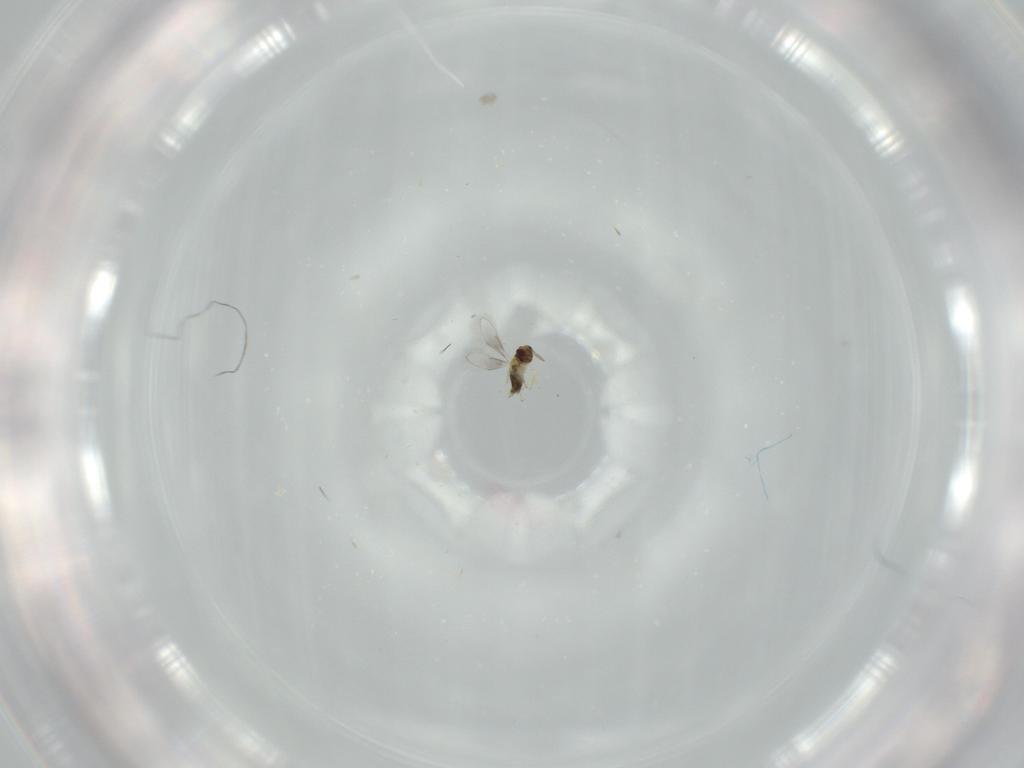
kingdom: Animalia
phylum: Arthropoda
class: Insecta
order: Hymenoptera
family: Aphelinidae
